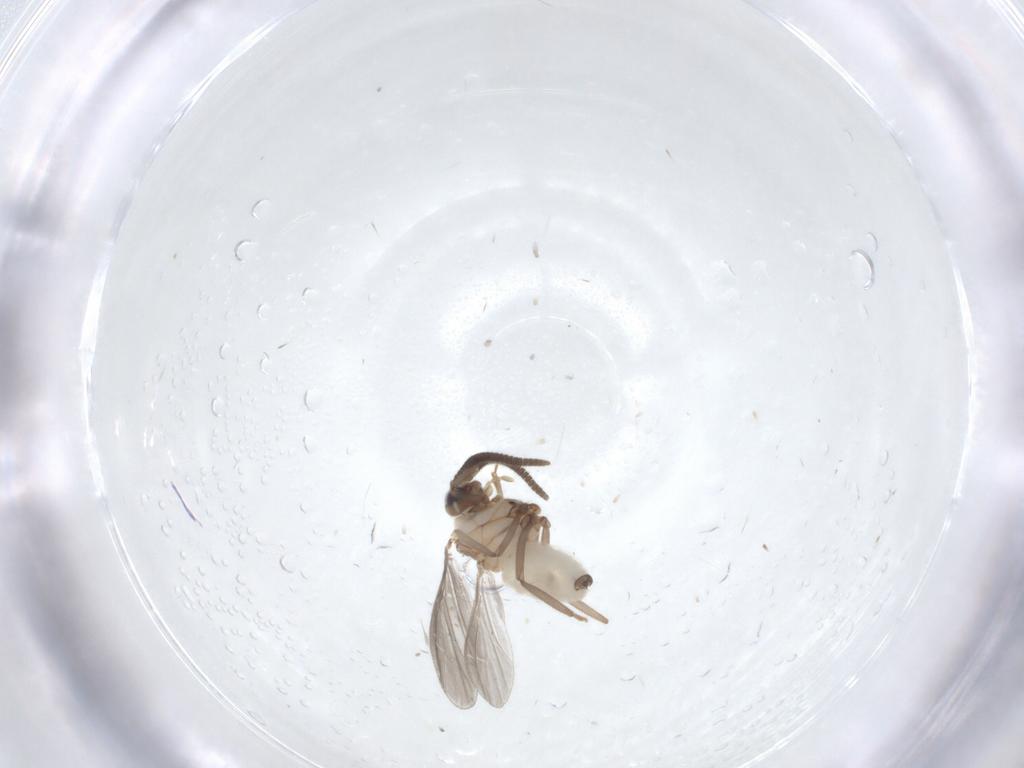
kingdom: Animalia
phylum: Arthropoda
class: Insecta
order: Neuroptera
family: Coniopterygidae
